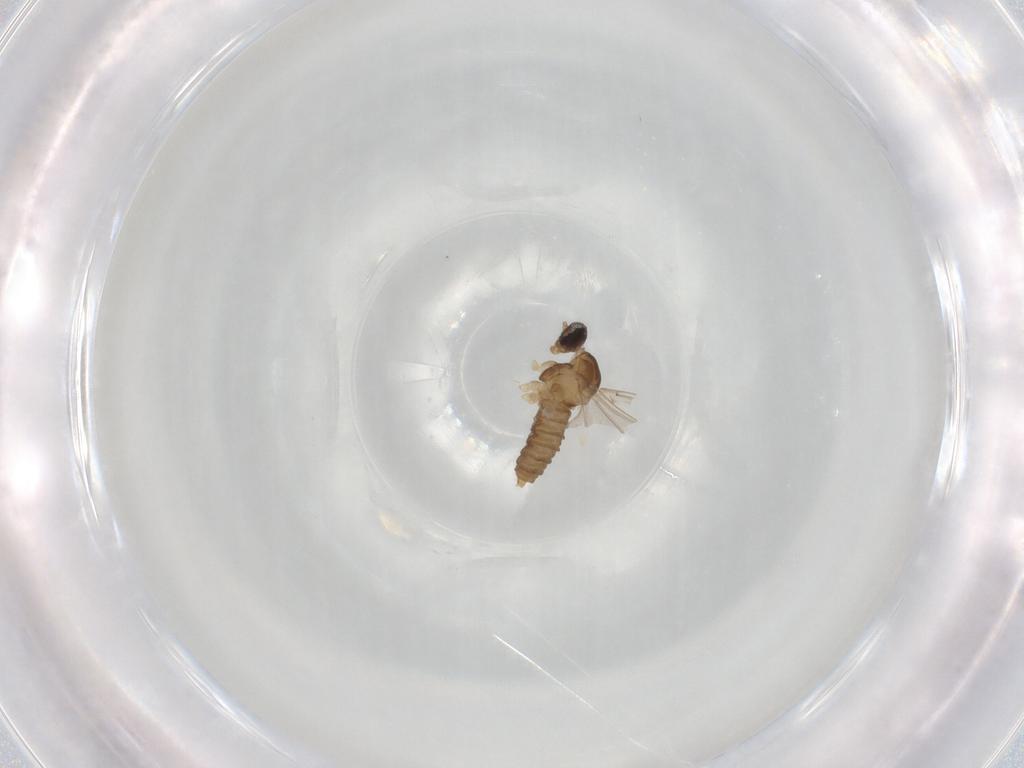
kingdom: Animalia
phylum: Arthropoda
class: Insecta
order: Diptera
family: Cecidomyiidae
